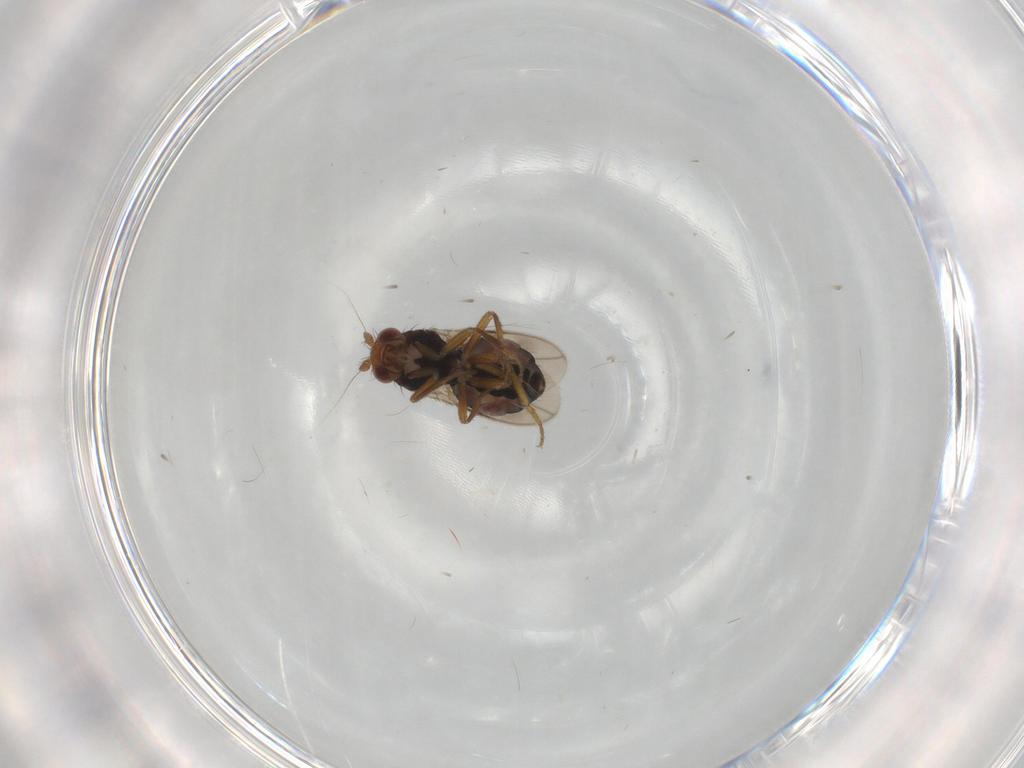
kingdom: Animalia
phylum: Arthropoda
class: Insecta
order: Diptera
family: Sphaeroceridae
